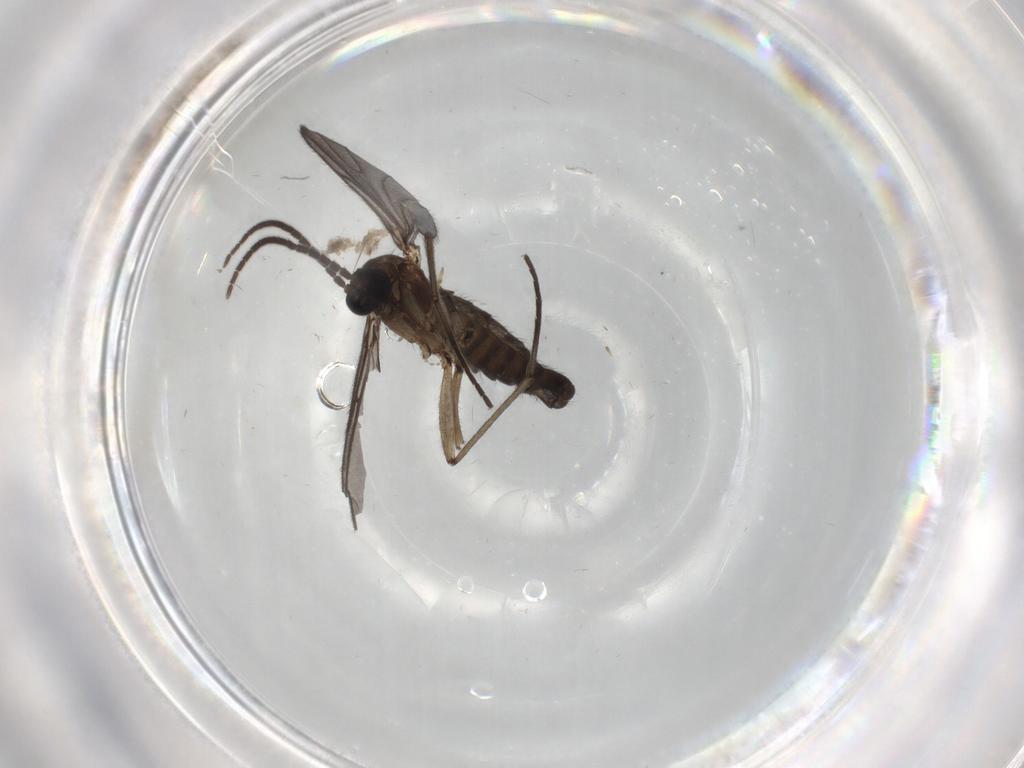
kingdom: Animalia
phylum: Arthropoda
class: Insecta
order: Diptera
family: Sciaridae
